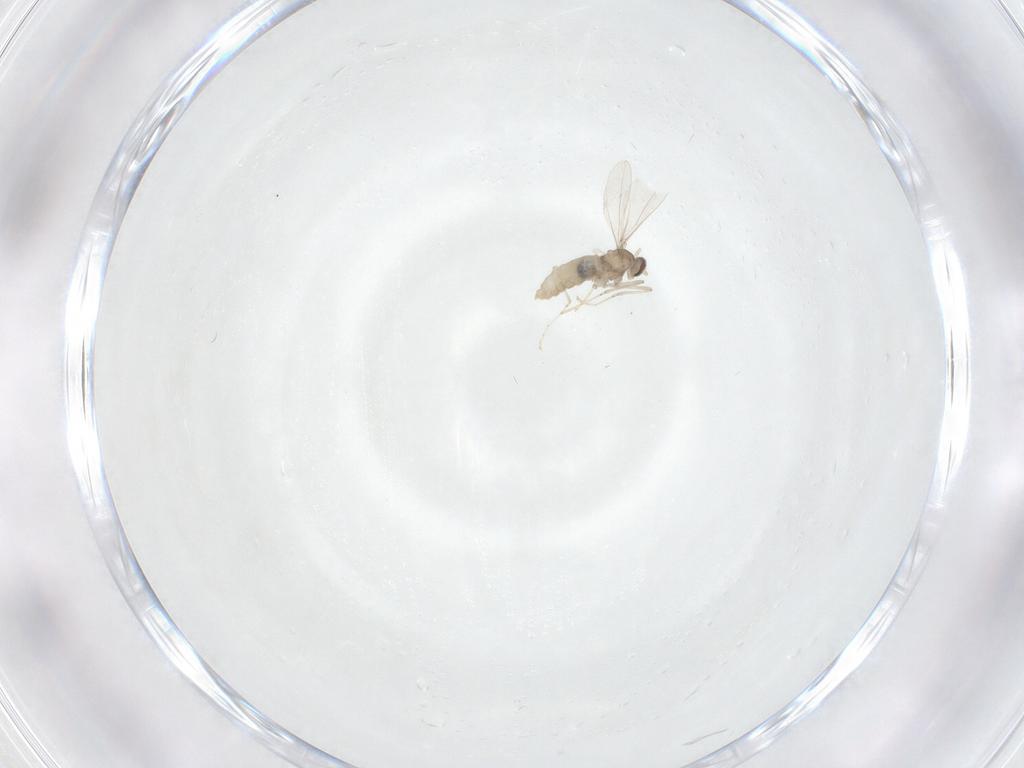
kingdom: Animalia
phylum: Arthropoda
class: Insecta
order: Diptera
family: Cecidomyiidae
